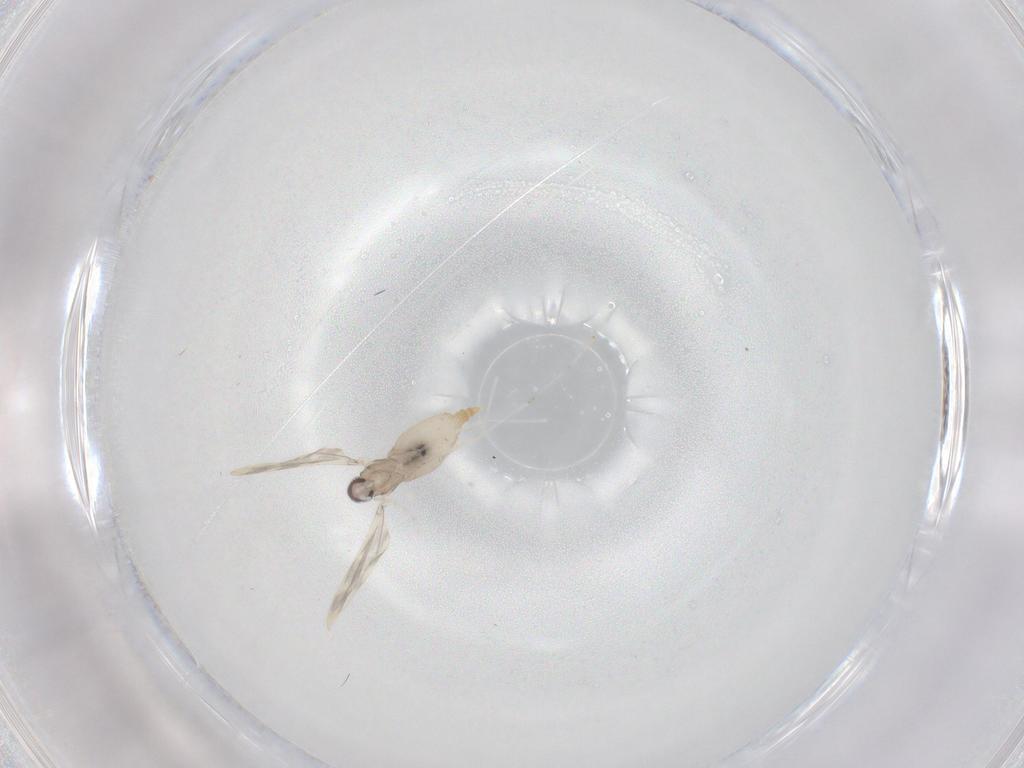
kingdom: Animalia
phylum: Arthropoda
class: Insecta
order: Diptera
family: Cecidomyiidae
